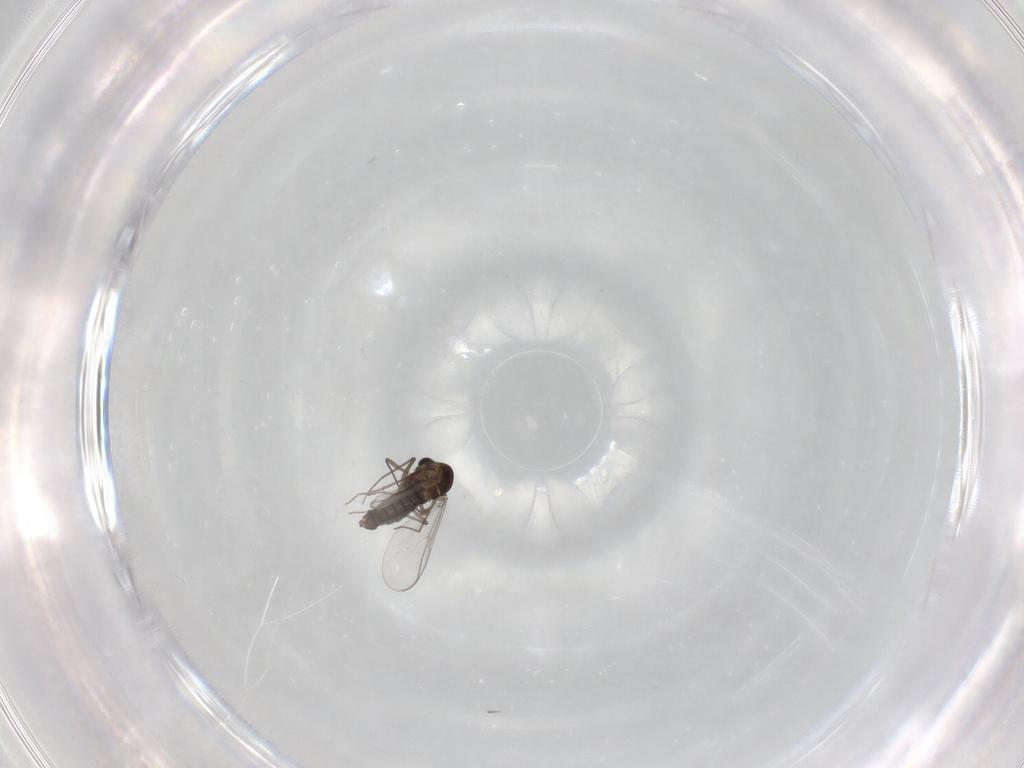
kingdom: Animalia
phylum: Arthropoda
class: Insecta
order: Diptera
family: Chironomidae
